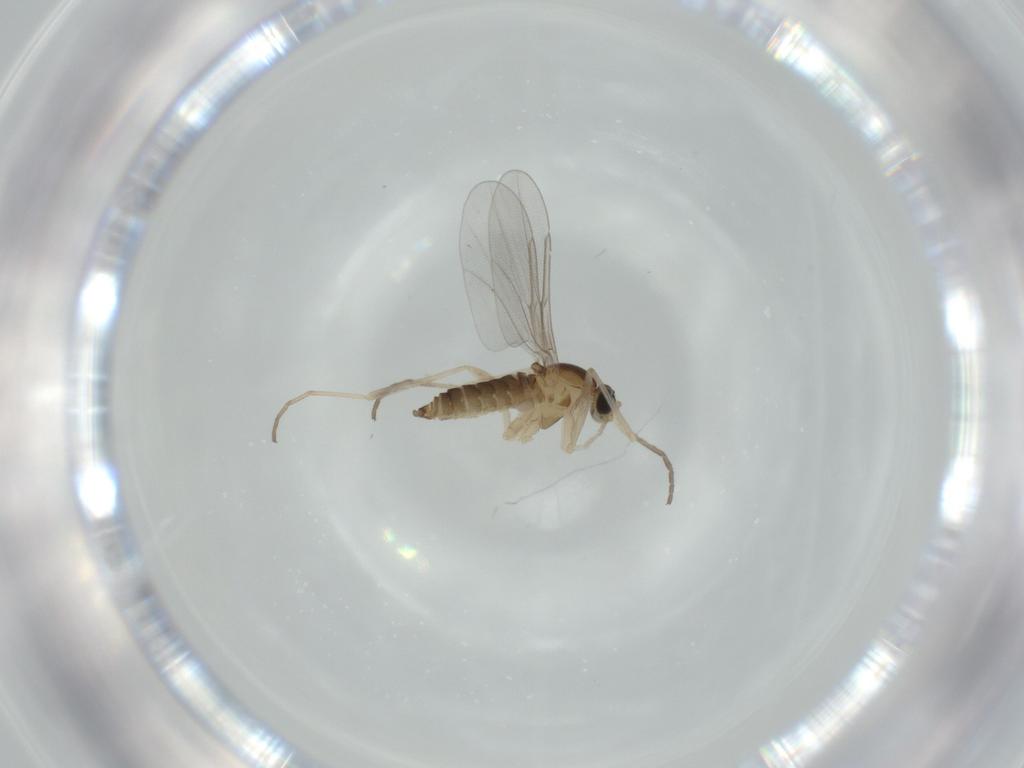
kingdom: Animalia
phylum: Arthropoda
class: Insecta
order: Diptera
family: Cecidomyiidae
